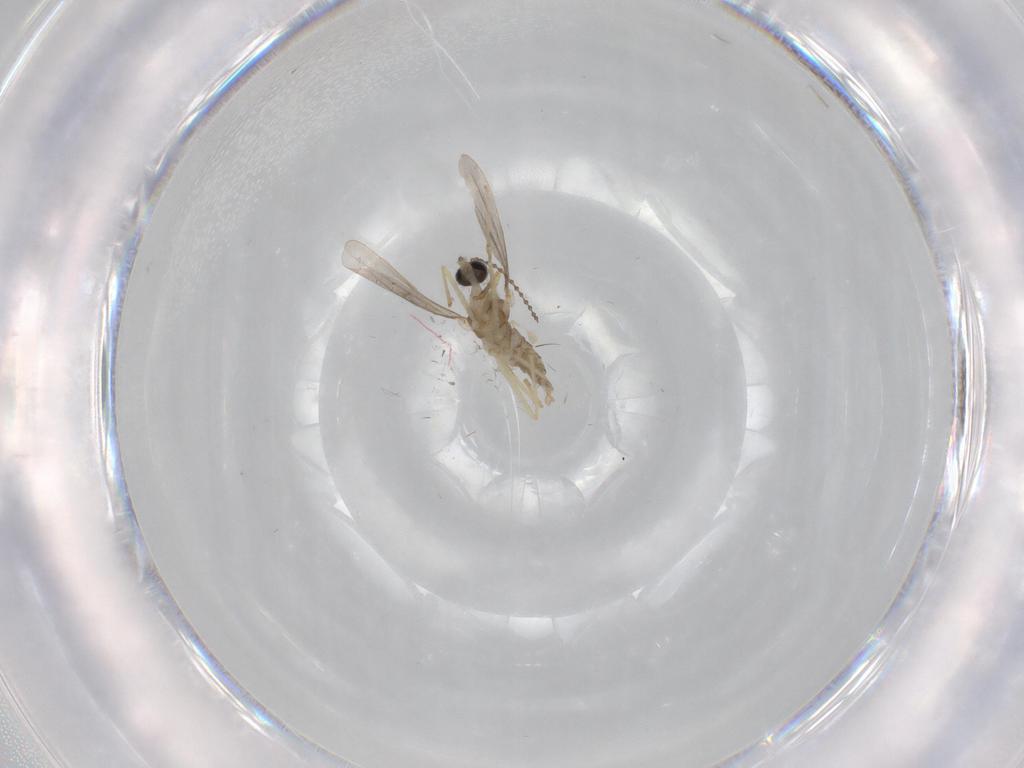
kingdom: Animalia
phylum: Arthropoda
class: Insecta
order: Diptera
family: Cecidomyiidae
